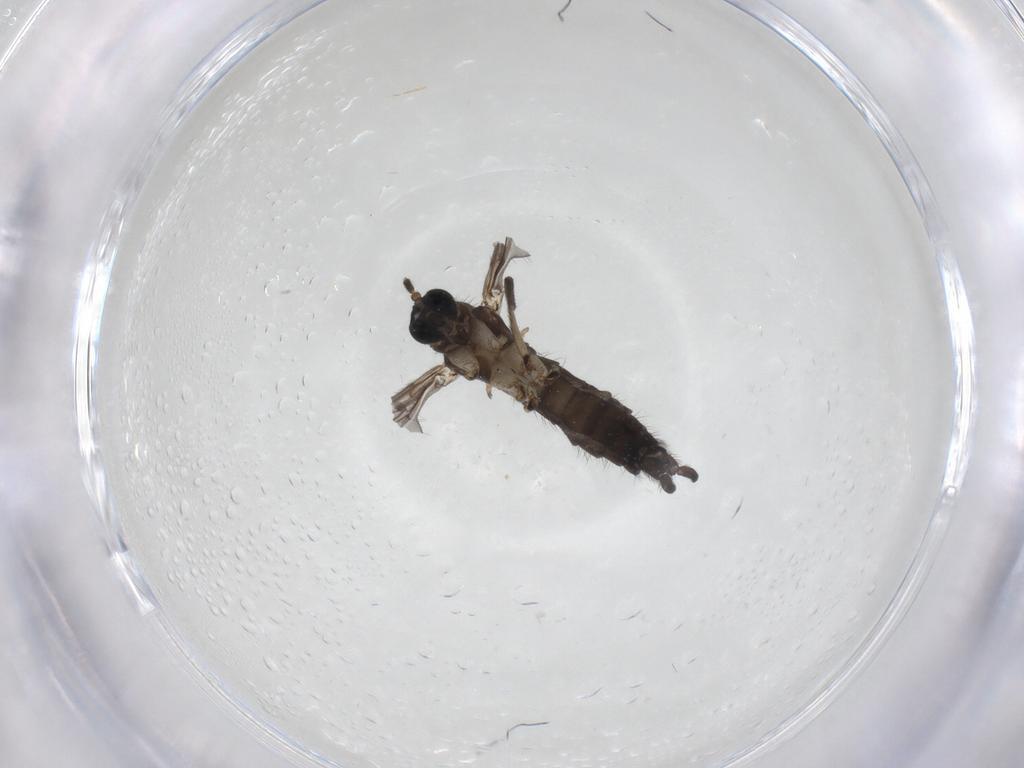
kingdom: Animalia
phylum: Arthropoda
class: Insecta
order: Diptera
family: Sciaridae
